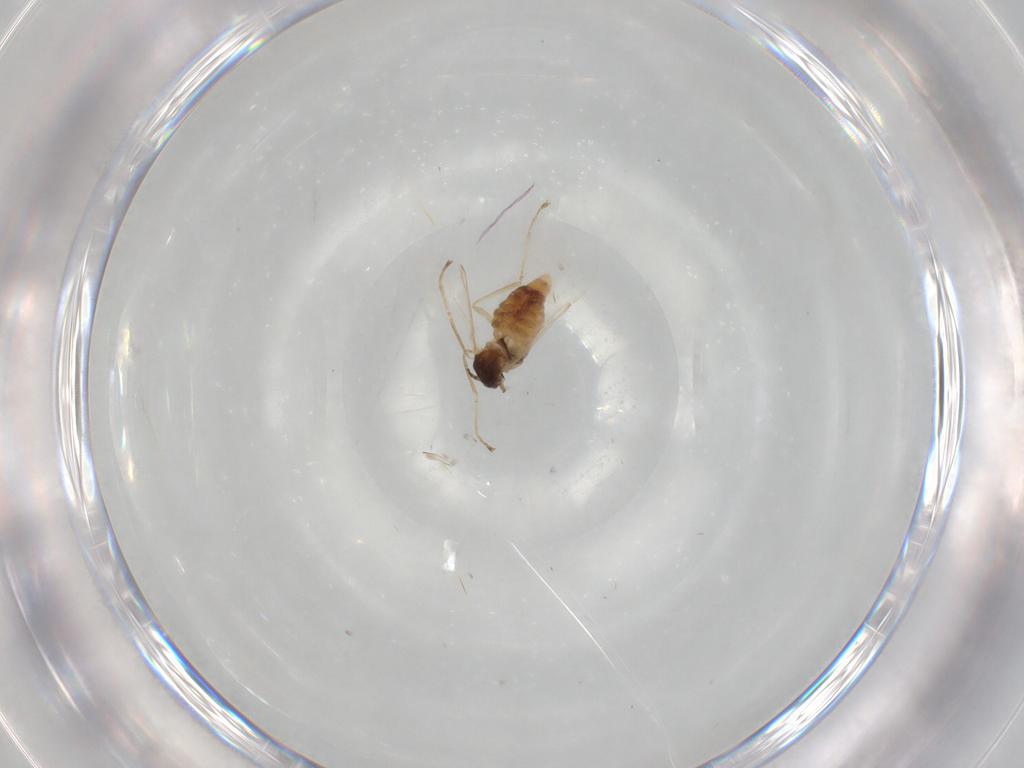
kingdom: Animalia
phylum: Arthropoda
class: Insecta
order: Diptera
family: Cecidomyiidae
